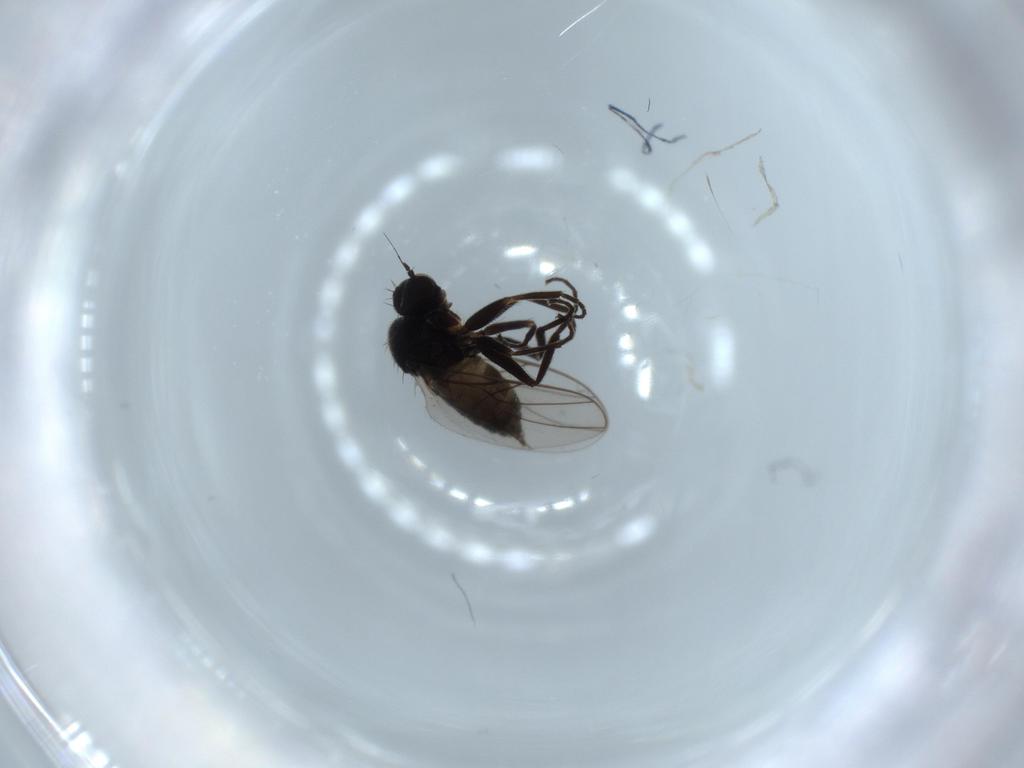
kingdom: Animalia
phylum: Arthropoda
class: Insecta
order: Diptera
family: Hybotidae
